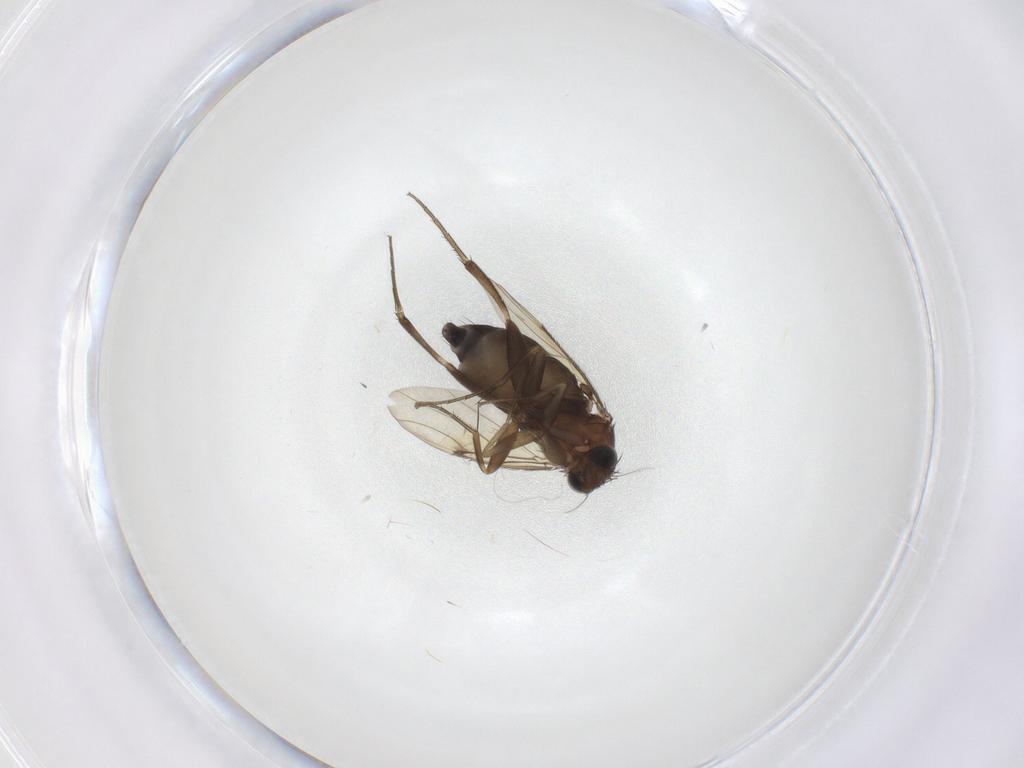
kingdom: Animalia
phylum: Arthropoda
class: Insecta
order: Diptera
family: Phoridae
